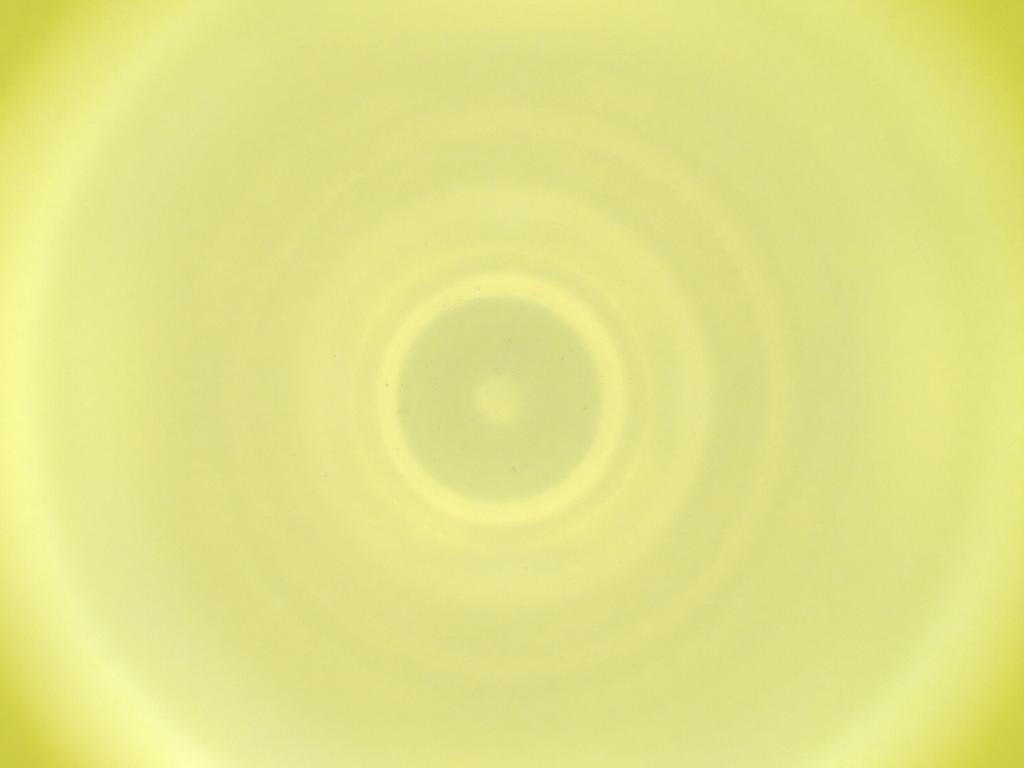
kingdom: Animalia
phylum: Arthropoda
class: Insecta
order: Diptera
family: Cecidomyiidae
